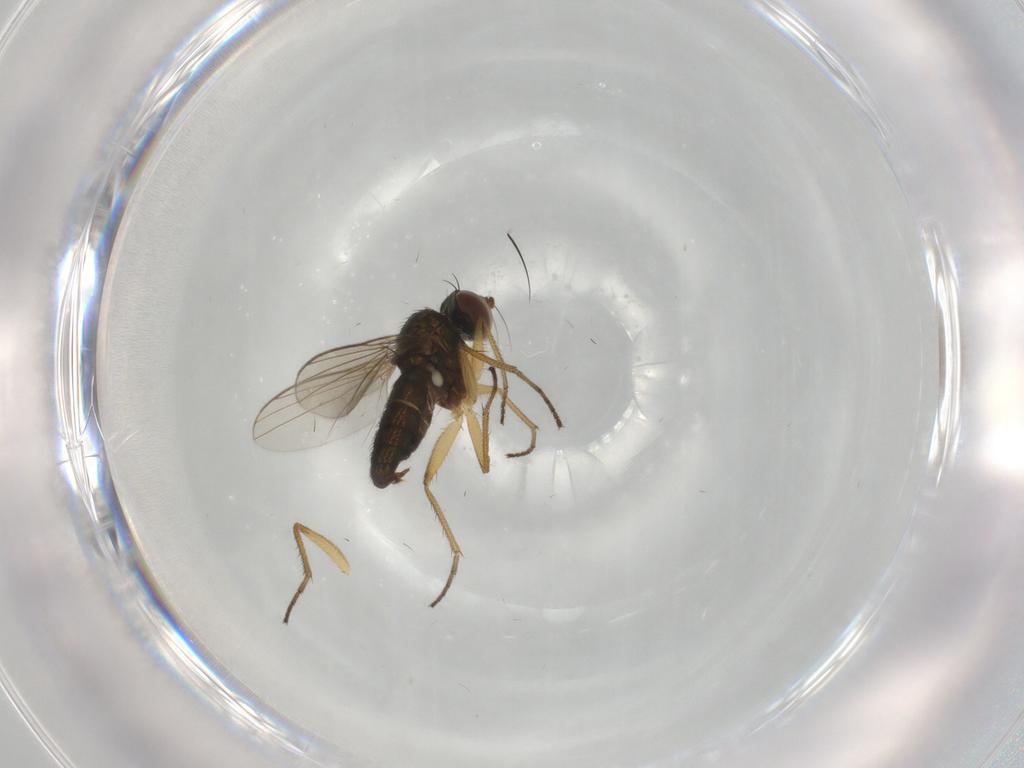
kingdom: Animalia
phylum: Arthropoda
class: Insecta
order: Diptera
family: Dolichopodidae
